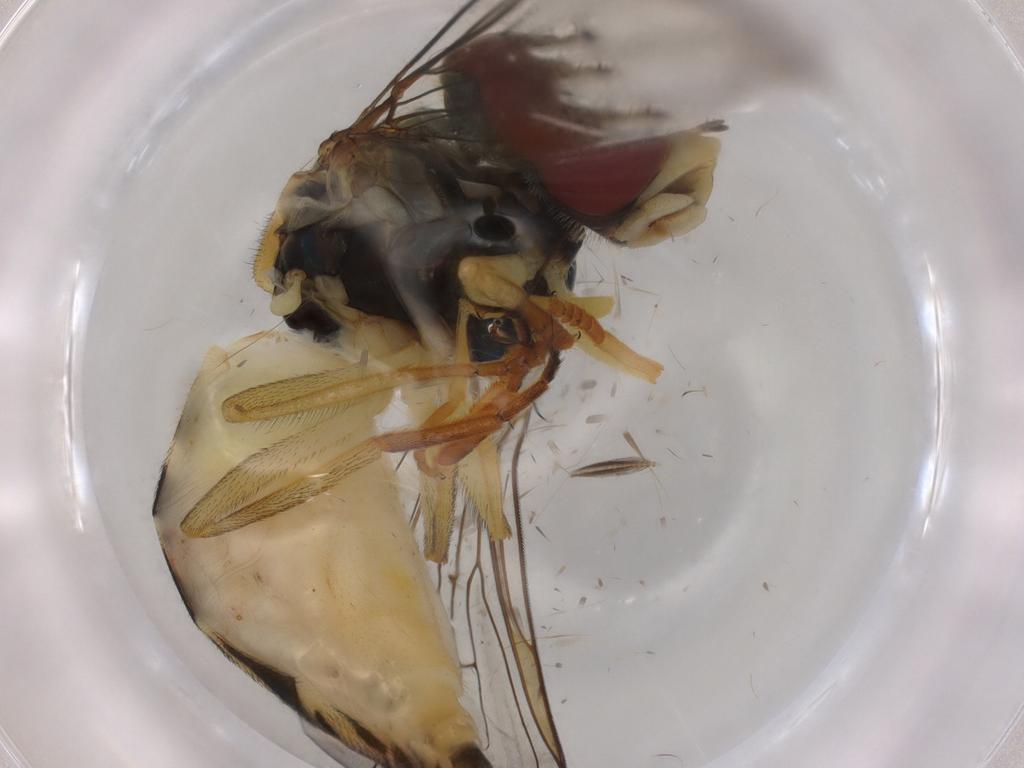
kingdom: Animalia
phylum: Arthropoda
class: Insecta
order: Diptera
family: Syrphidae
